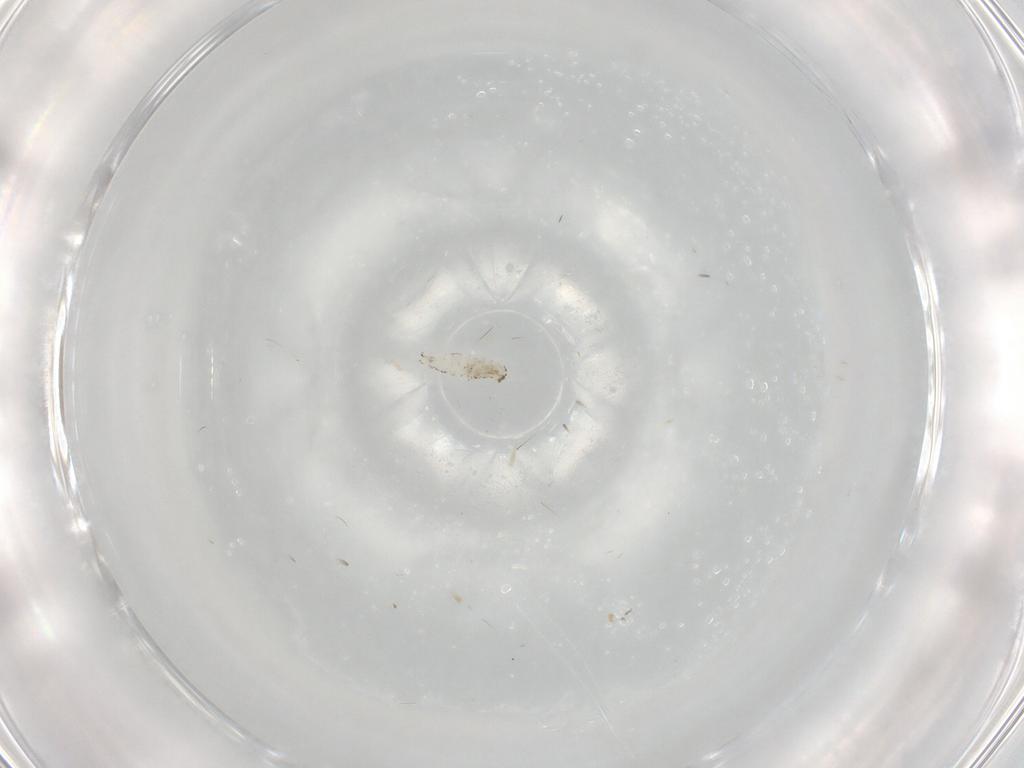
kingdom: Animalia
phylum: Arthropoda
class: Insecta
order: Diptera
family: Sciaridae
